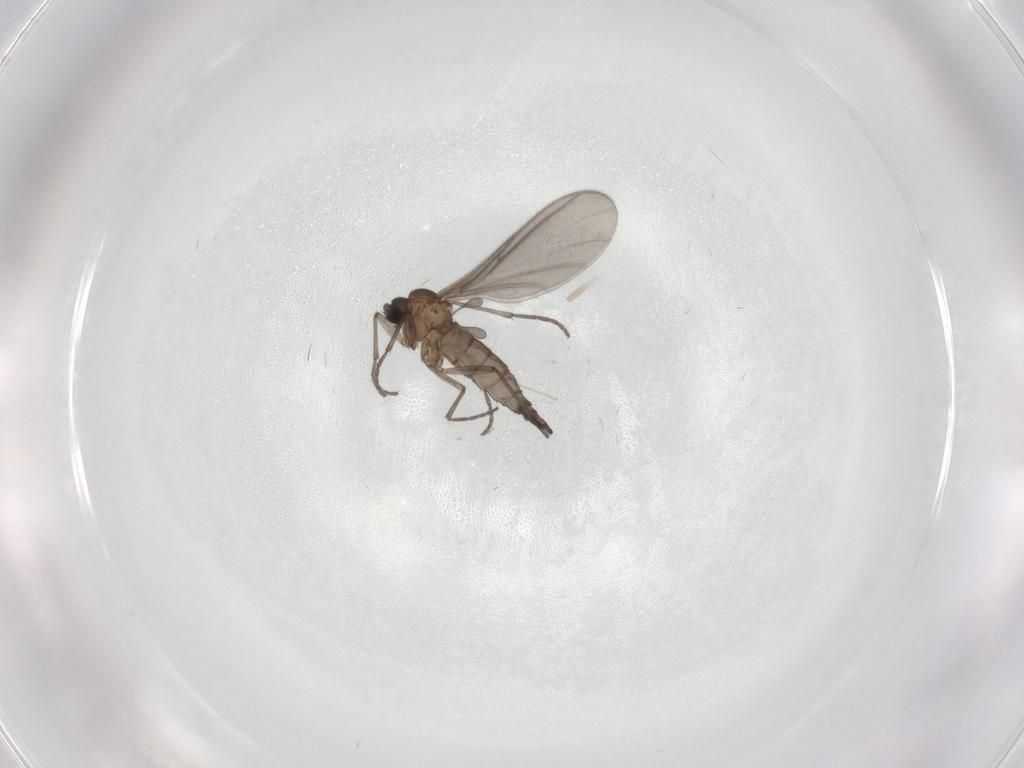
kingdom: Animalia
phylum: Arthropoda
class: Insecta
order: Diptera
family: Sciaridae
